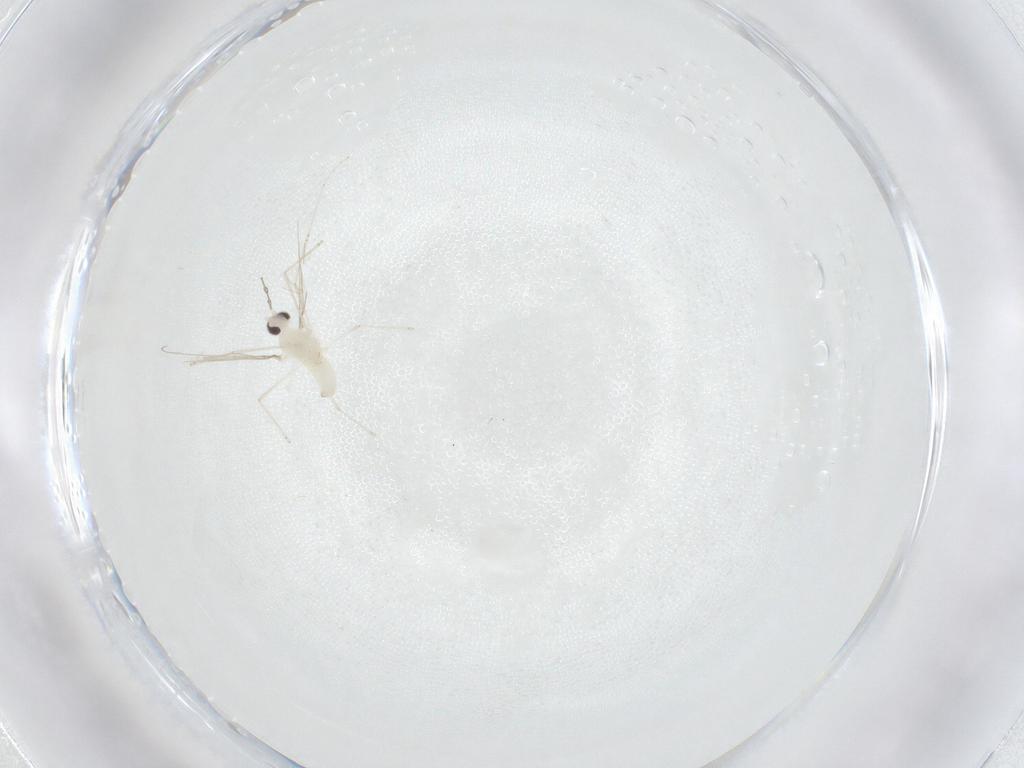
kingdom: Animalia
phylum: Arthropoda
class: Insecta
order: Diptera
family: Cecidomyiidae
